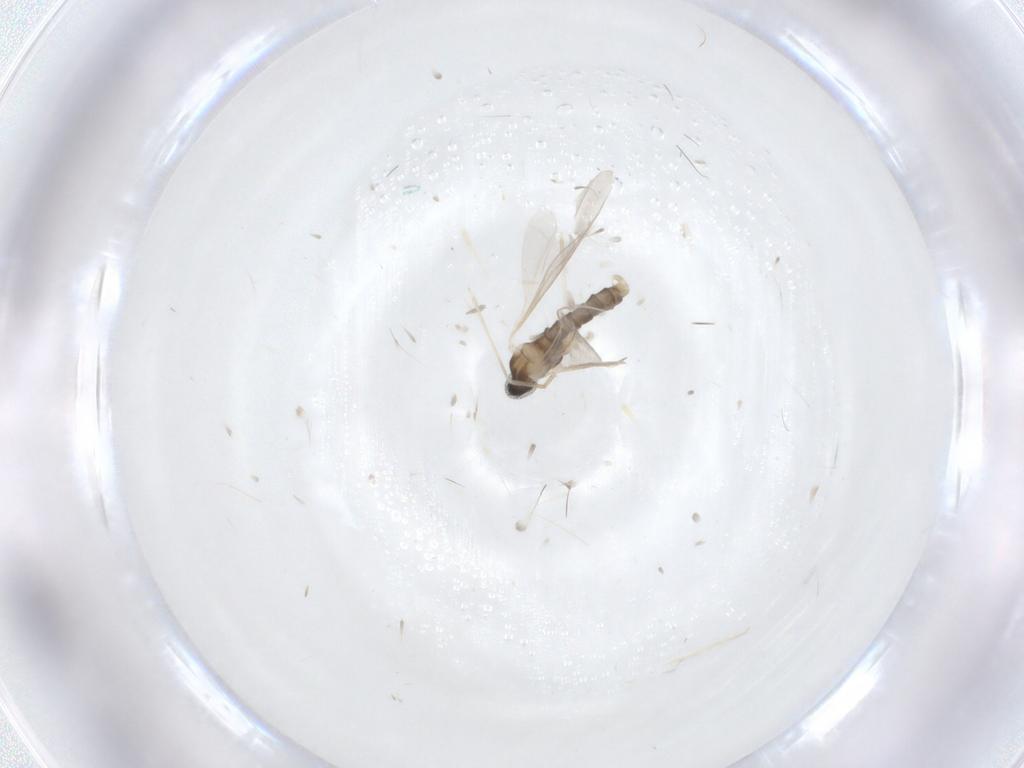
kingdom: Animalia
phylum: Arthropoda
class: Insecta
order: Diptera
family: Cecidomyiidae
